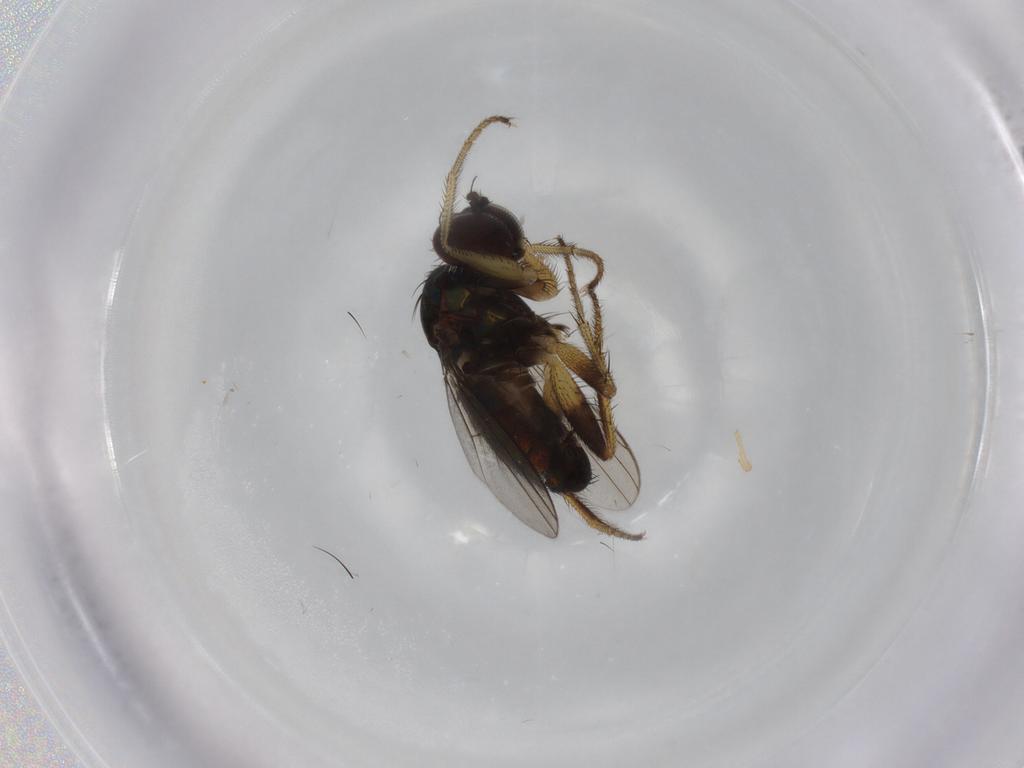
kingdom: Animalia
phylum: Arthropoda
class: Insecta
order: Diptera
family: Dolichopodidae
